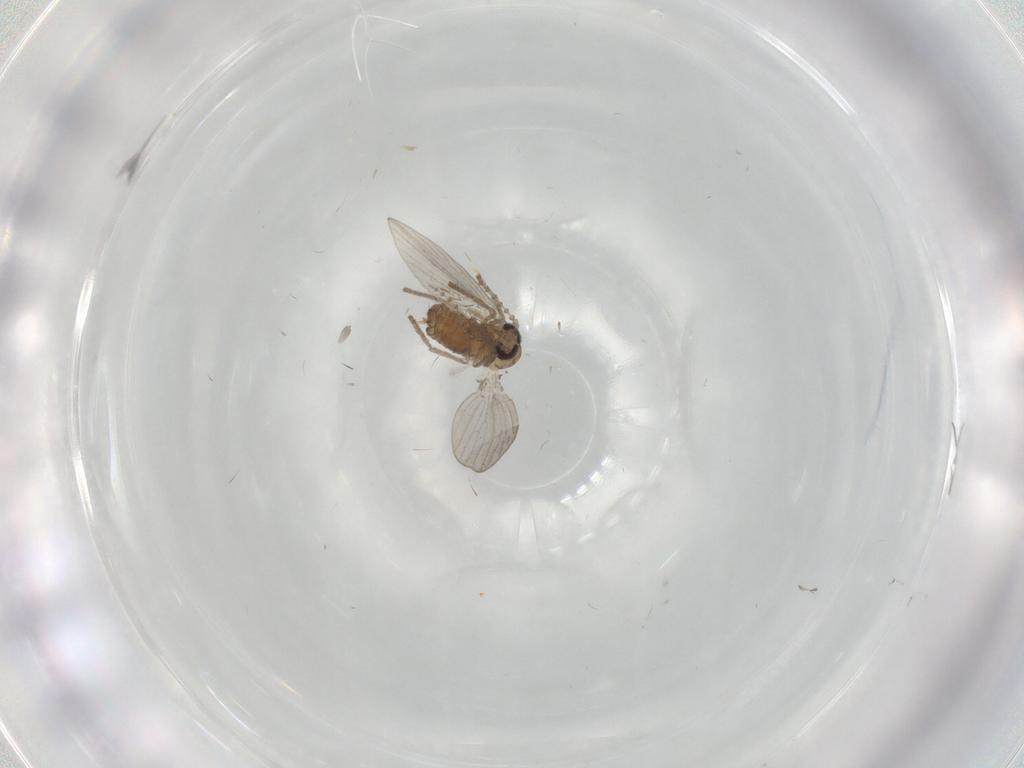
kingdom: Animalia
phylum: Arthropoda
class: Insecta
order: Diptera
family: Psychodidae
